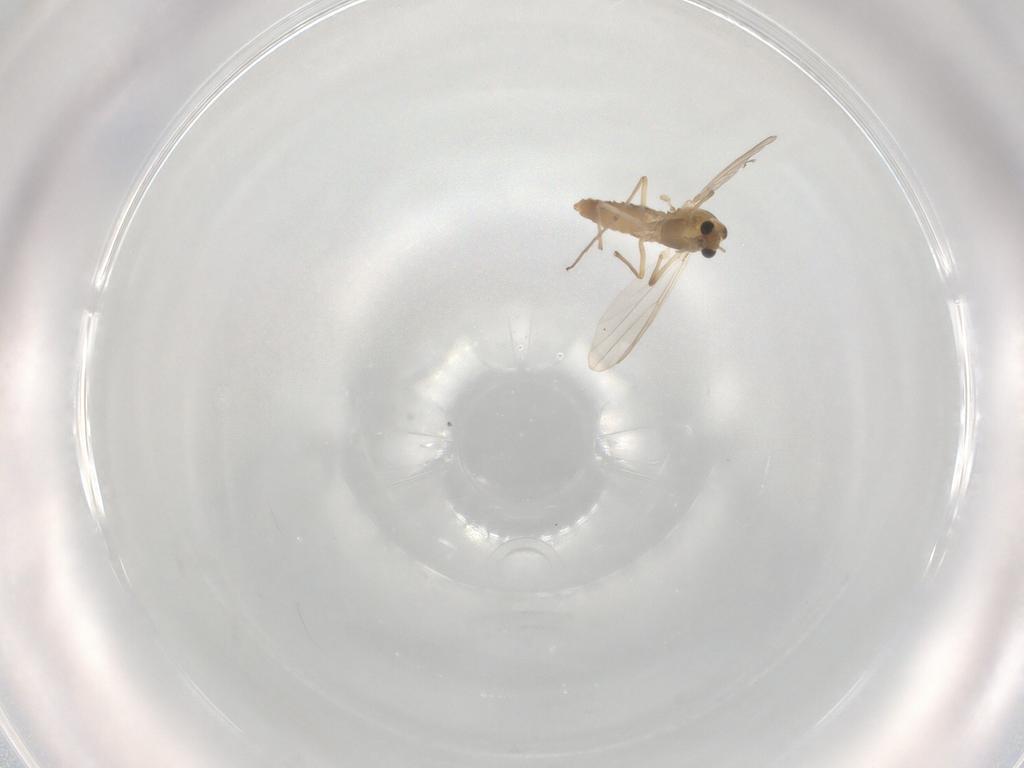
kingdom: Animalia
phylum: Arthropoda
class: Insecta
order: Diptera
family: Chironomidae
